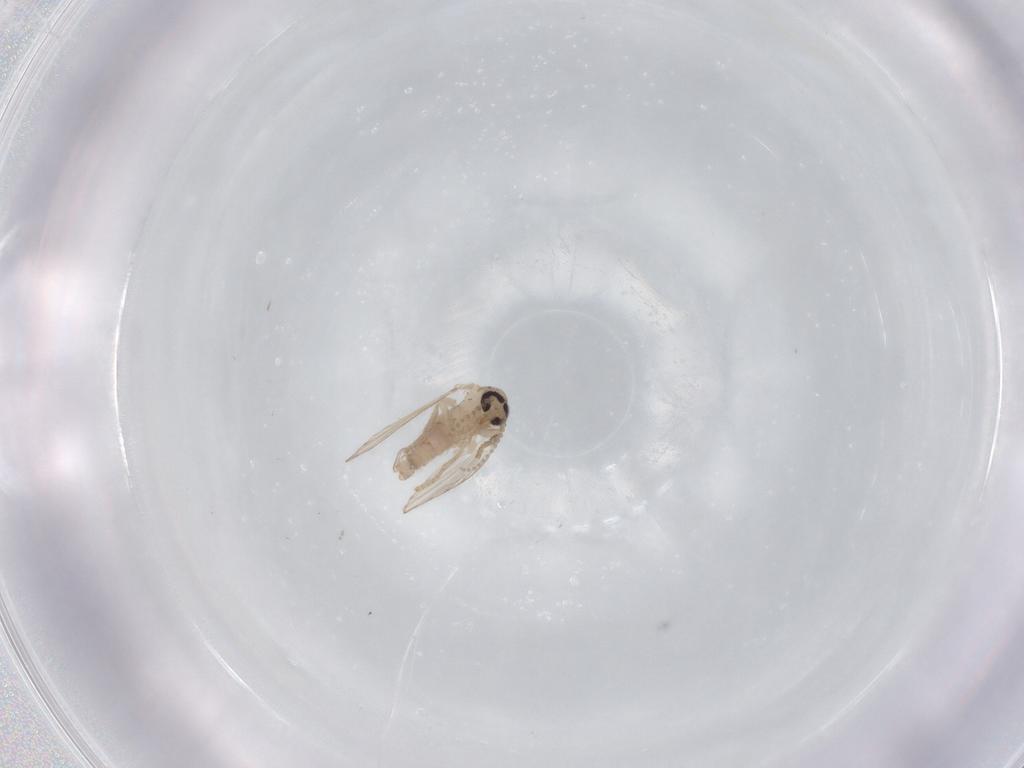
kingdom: Animalia
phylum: Arthropoda
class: Insecta
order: Diptera
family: Psychodidae
